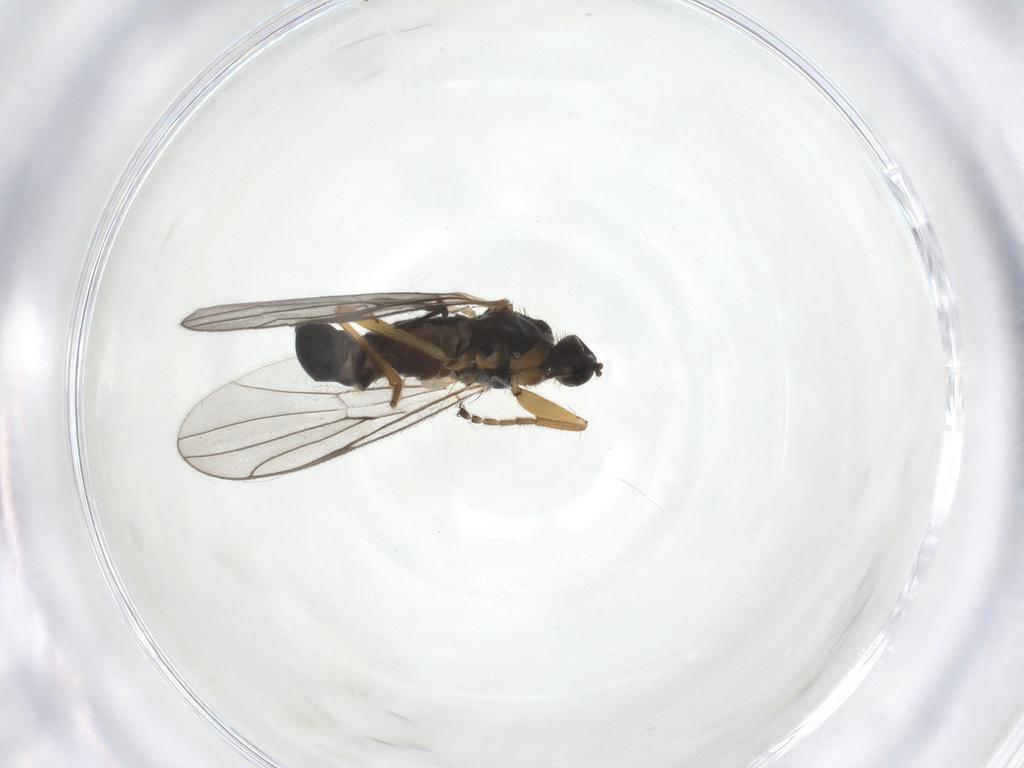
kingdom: Animalia
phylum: Arthropoda
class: Insecta
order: Diptera
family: Hybotidae
